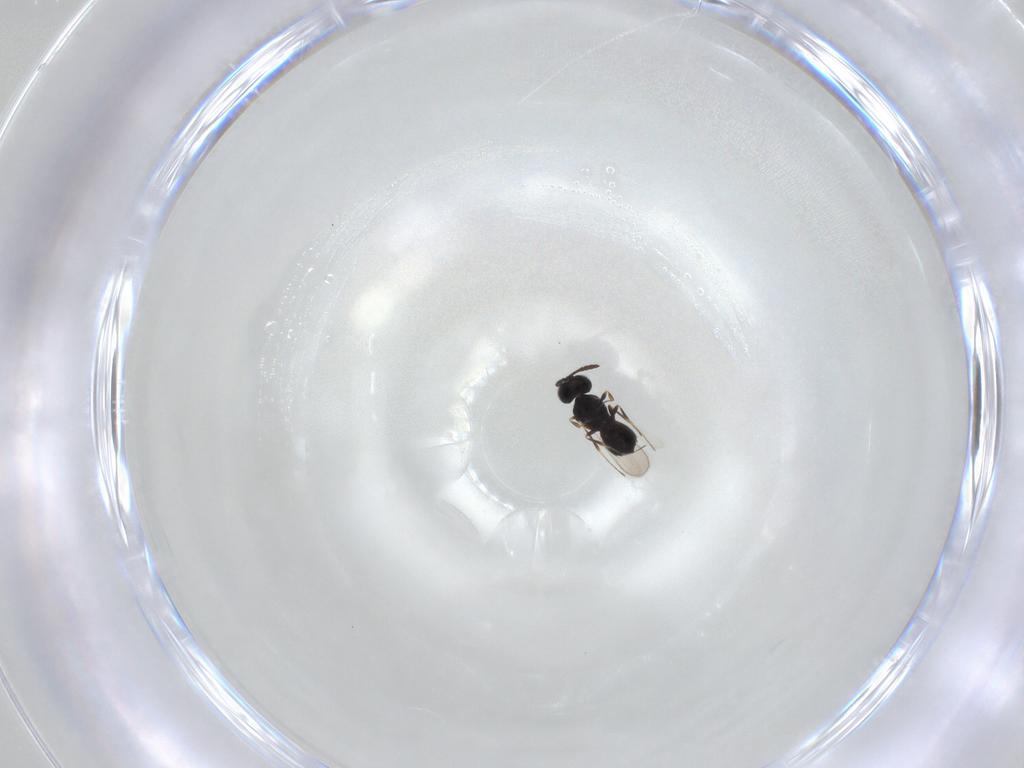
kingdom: Animalia
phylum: Arthropoda
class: Insecta
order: Hymenoptera
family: Scelionidae
